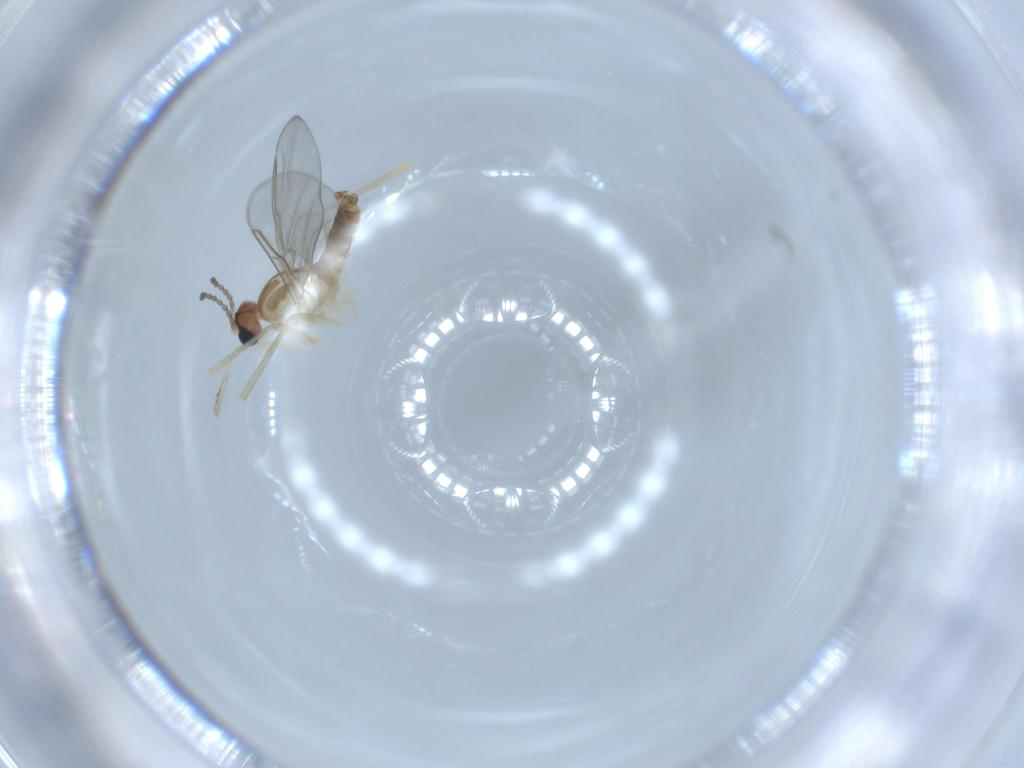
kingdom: Animalia
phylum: Arthropoda
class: Insecta
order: Diptera
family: Cecidomyiidae
